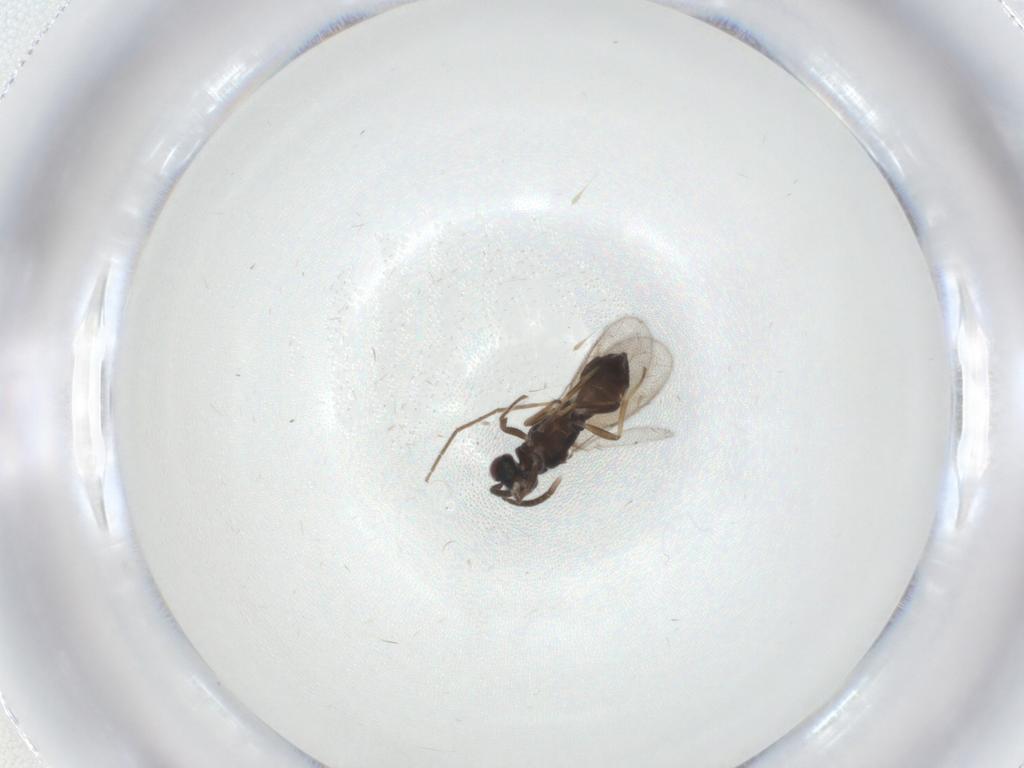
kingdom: Animalia
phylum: Arthropoda
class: Insecta
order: Hymenoptera
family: Eupelmidae
